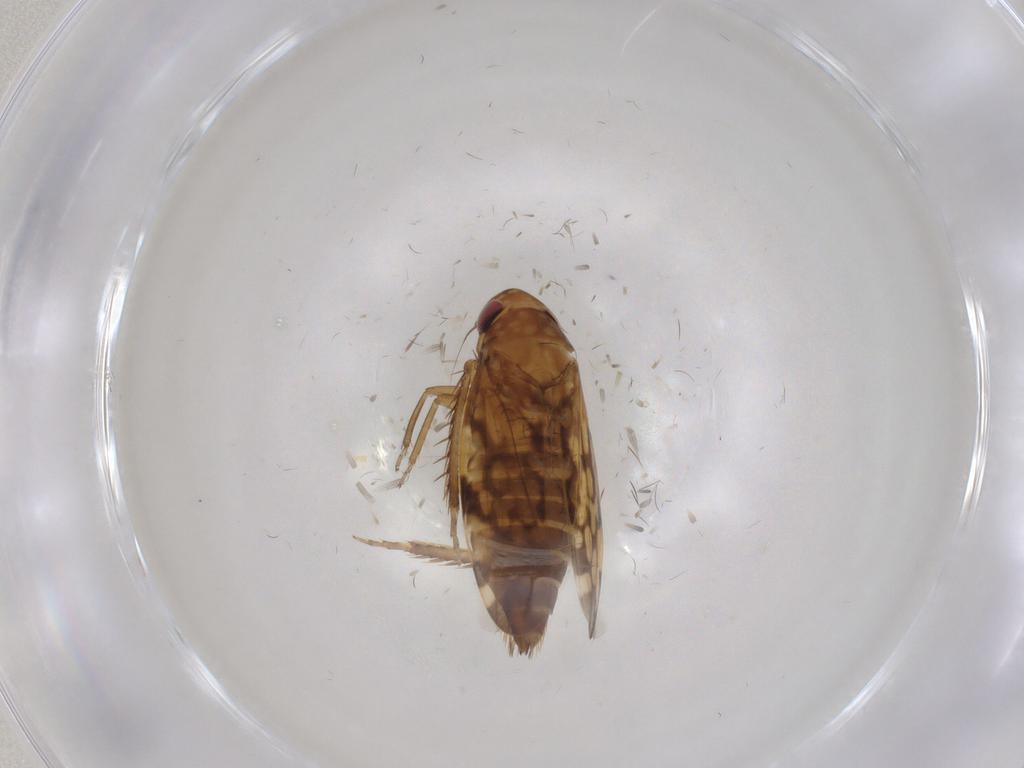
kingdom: Animalia
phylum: Arthropoda
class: Insecta
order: Hemiptera
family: Cicadellidae
